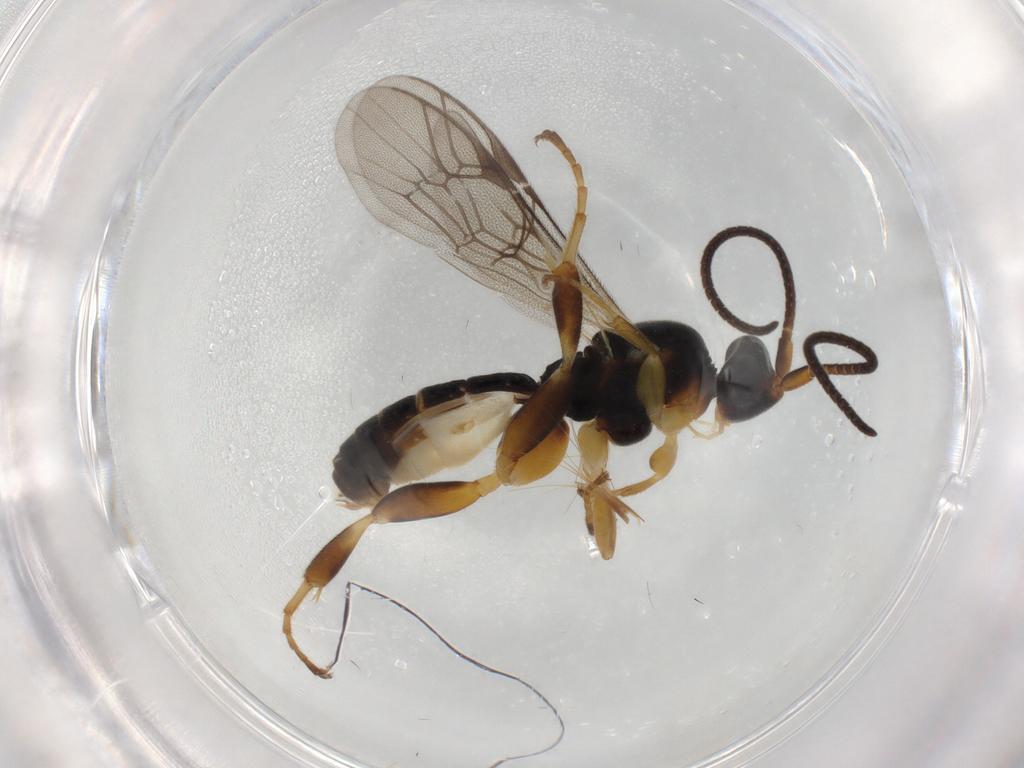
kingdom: Animalia
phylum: Arthropoda
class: Insecta
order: Hymenoptera
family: Ichneumonidae
